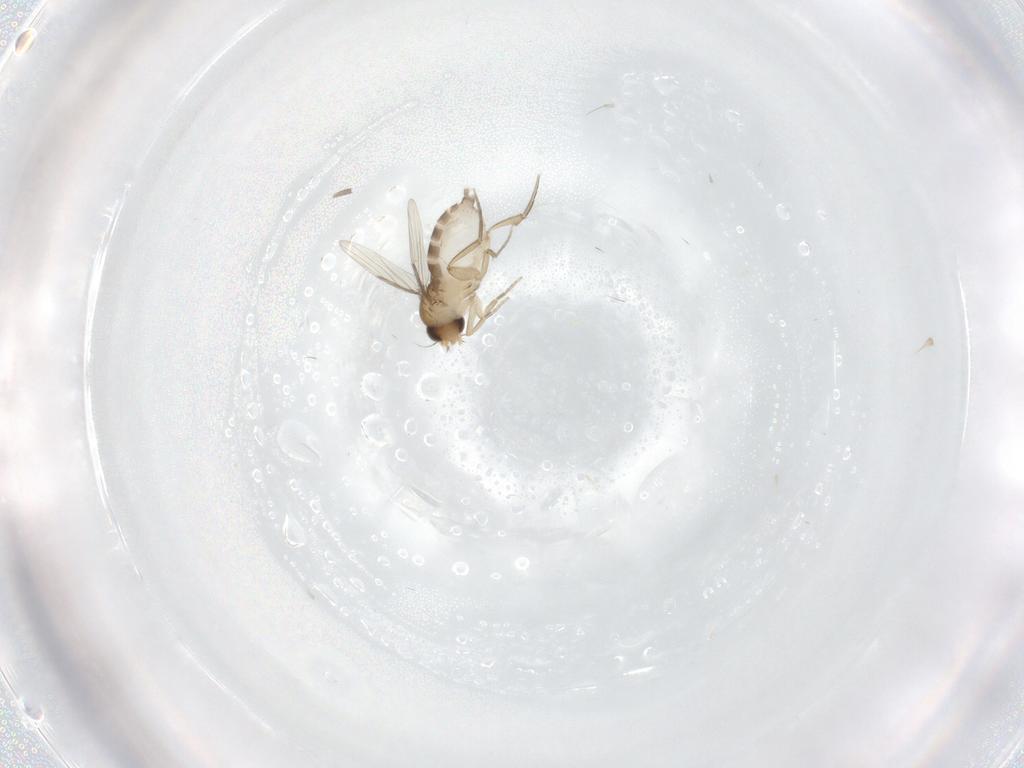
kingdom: Animalia
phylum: Arthropoda
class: Insecta
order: Diptera
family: Phoridae
